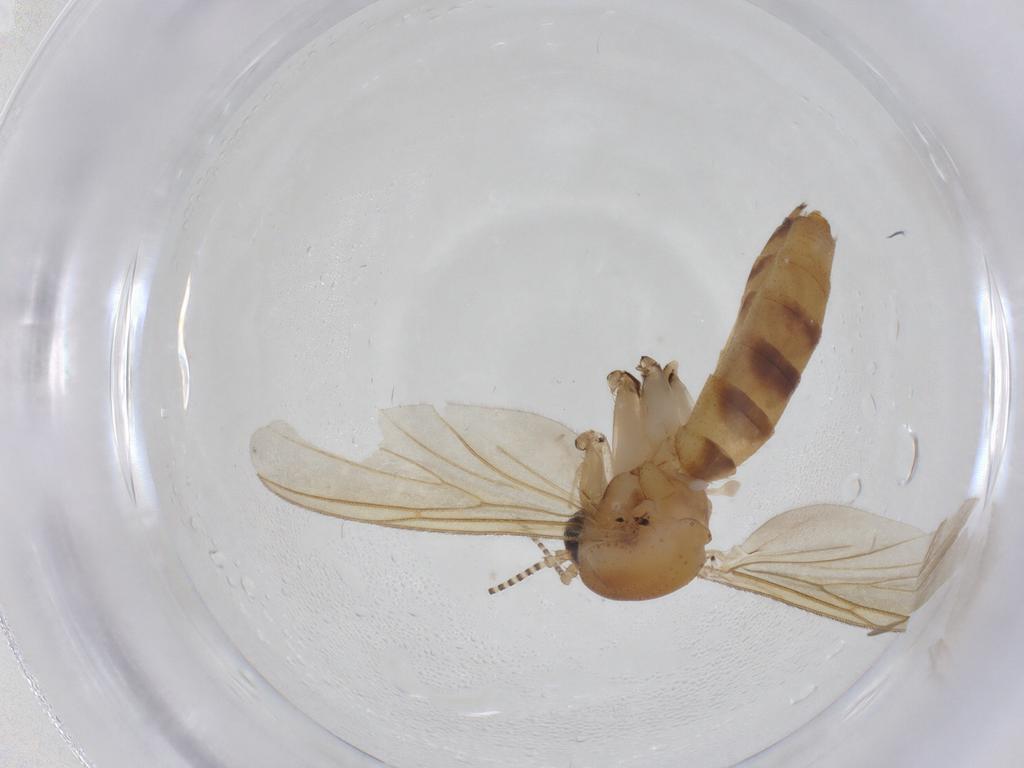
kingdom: Animalia
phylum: Arthropoda
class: Insecta
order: Diptera
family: Mycetophilidae
